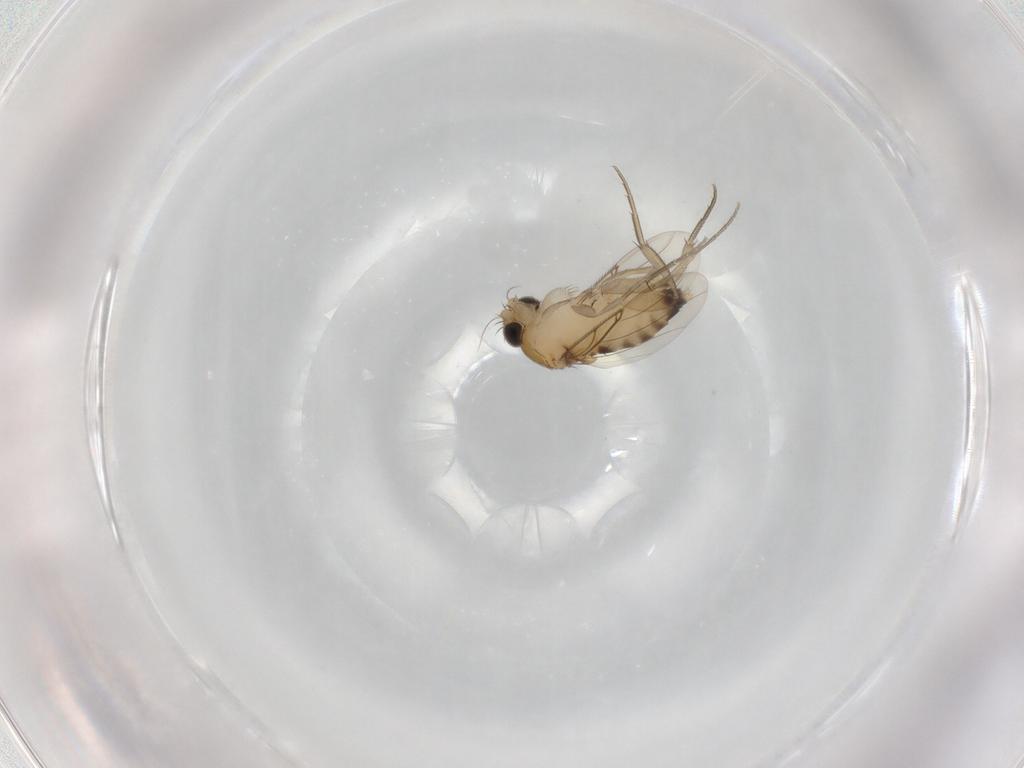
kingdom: Animalia
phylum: Arthropoda
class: Insecta
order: Diptera
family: Phoridae
